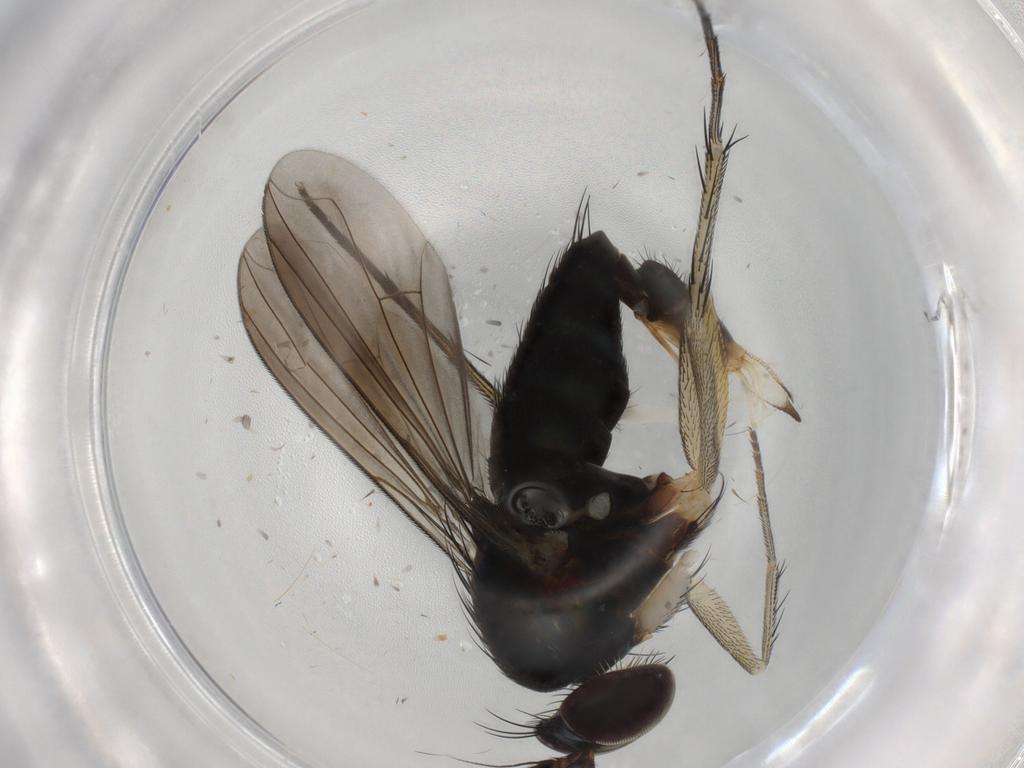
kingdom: Animalia
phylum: Arthropoda
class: Insecta
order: Diptera
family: Dolichopodidae
